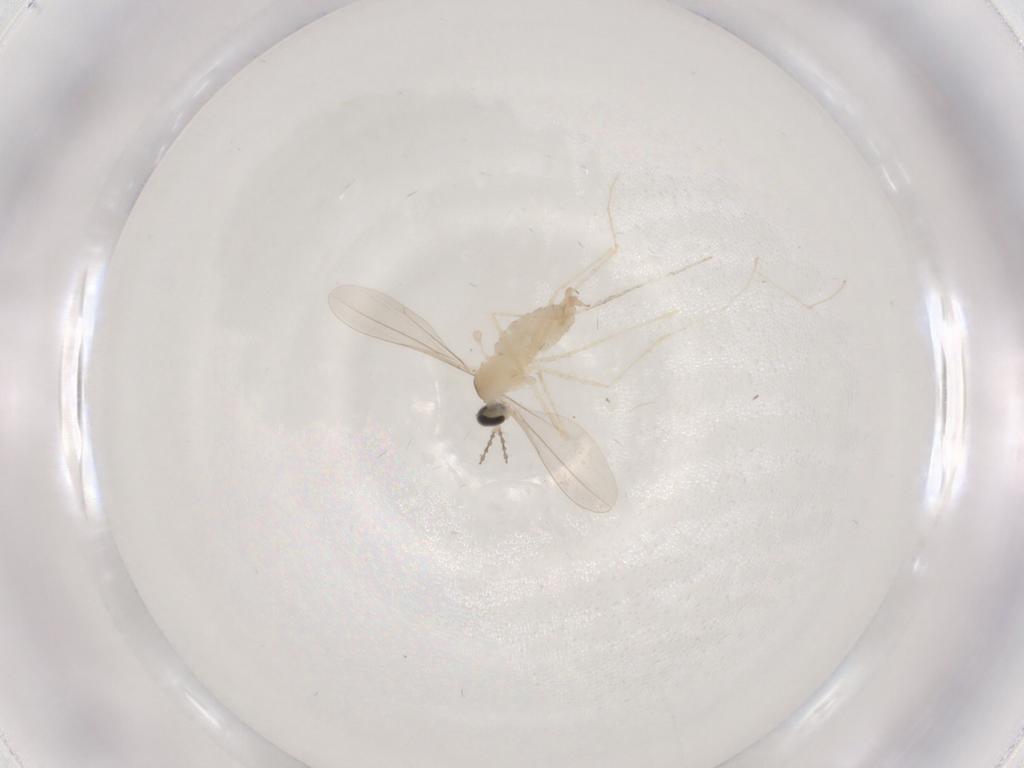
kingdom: Animalia
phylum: Arthropoda
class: Insecta
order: Diptera
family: Cecidomyiidae
